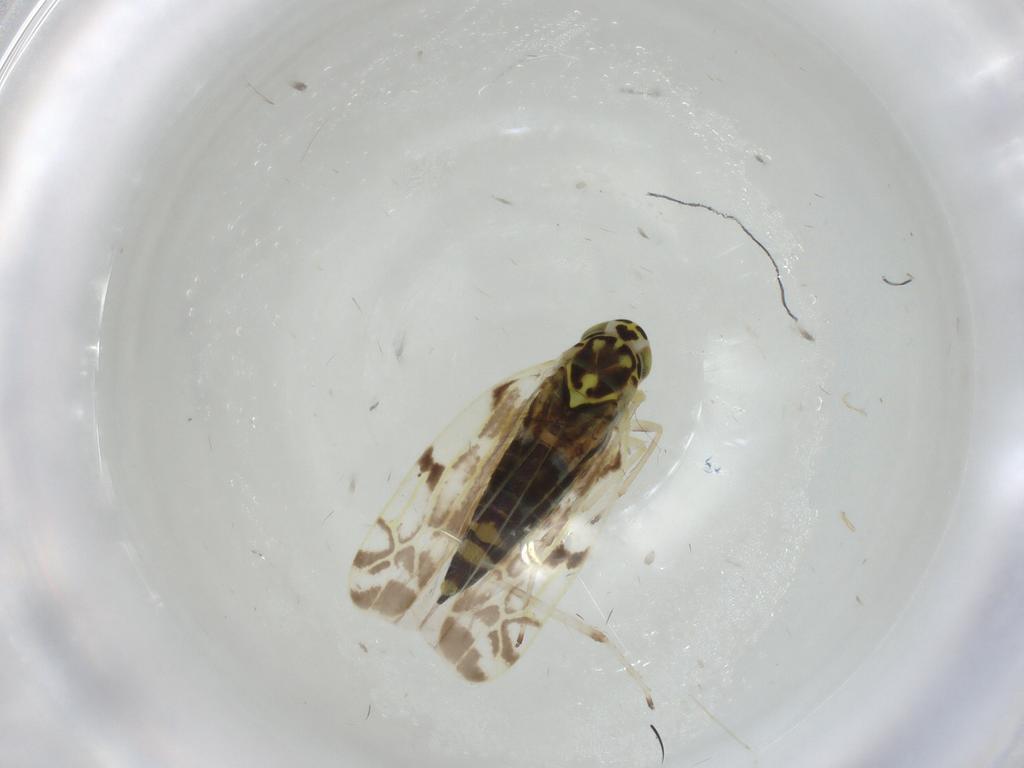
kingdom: Animalia
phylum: Arthropoda
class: Insecta
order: Hemiptera
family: Cicadellidae
